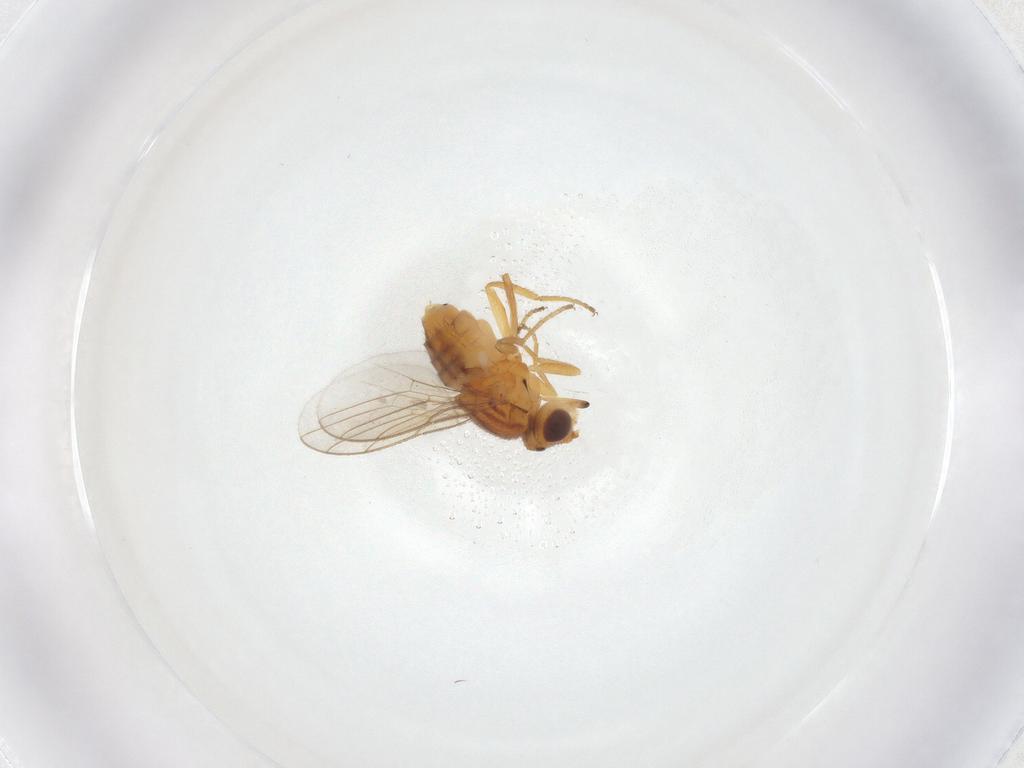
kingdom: Animalia
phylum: Arthropoda
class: Insecta
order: Diptera
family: Chloropidae
